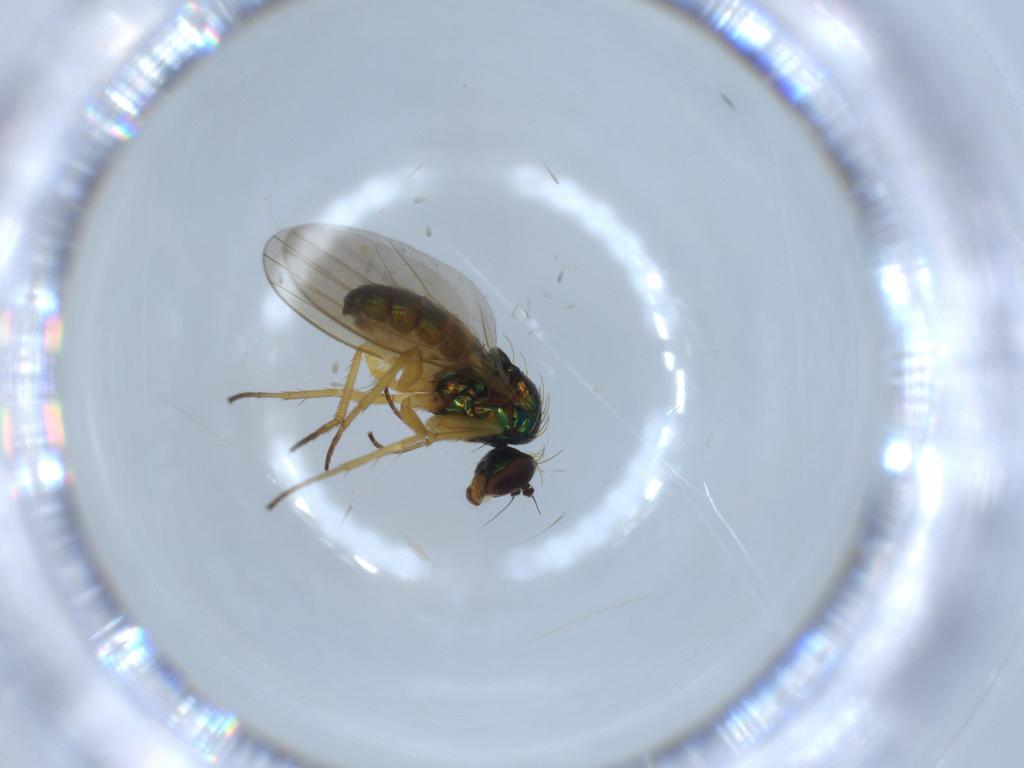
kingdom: Animalia
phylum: Arthropoda
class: Insecta
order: Diptera
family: Dolichopodidae
